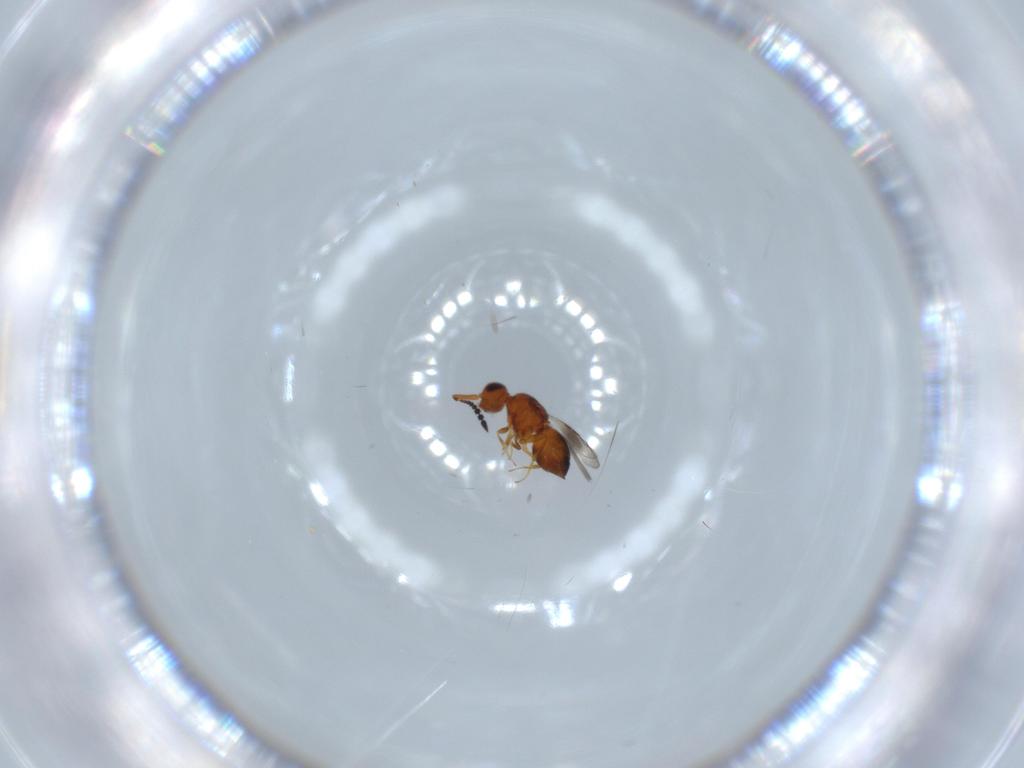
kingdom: Animalia
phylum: Arthropoda
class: Insecta
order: Hymenoptera
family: Ceraphronidae
